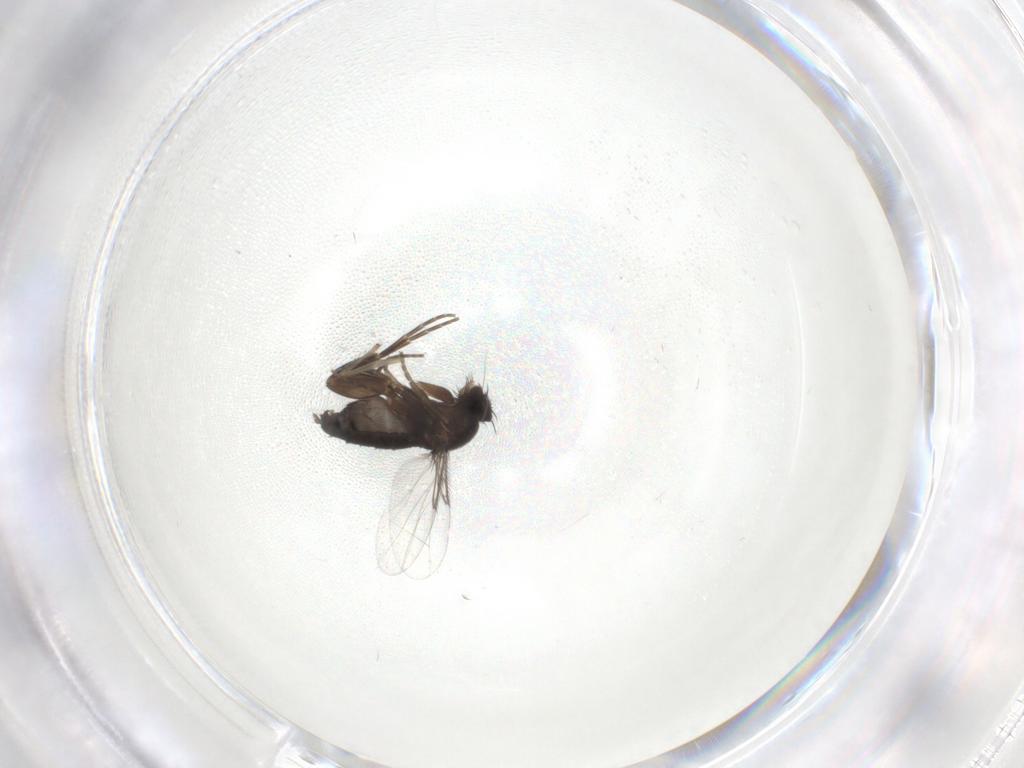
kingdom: Animalia
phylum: Arthropoda
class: Insecta
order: Diptera
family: Chironomidae
